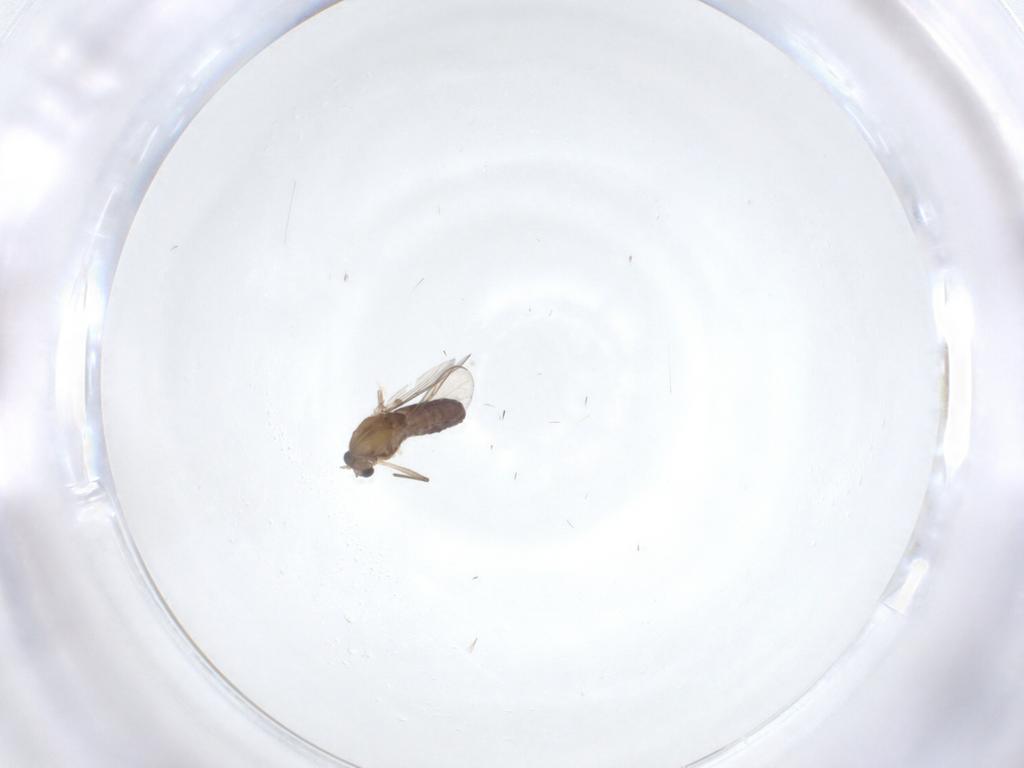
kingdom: Animalia
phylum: Arthropoda
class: Insecta
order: Diptera
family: Chironomidae
